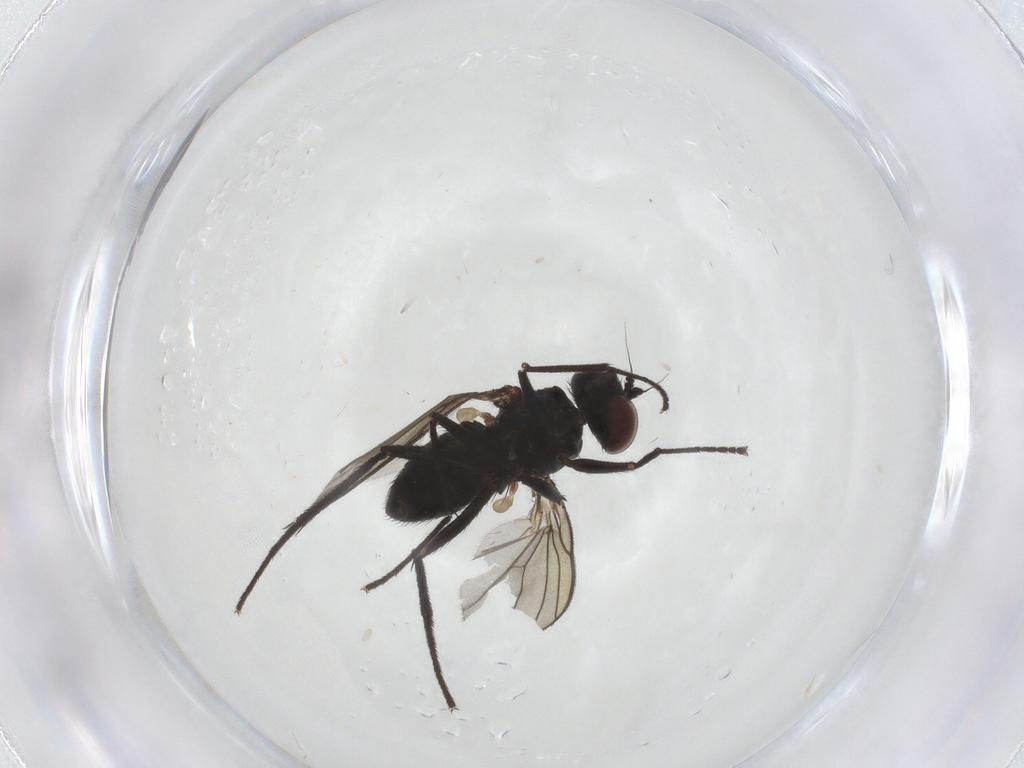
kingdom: Animalia
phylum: Arthropoda
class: Insecta
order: Diptera
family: Dolichopodidae
